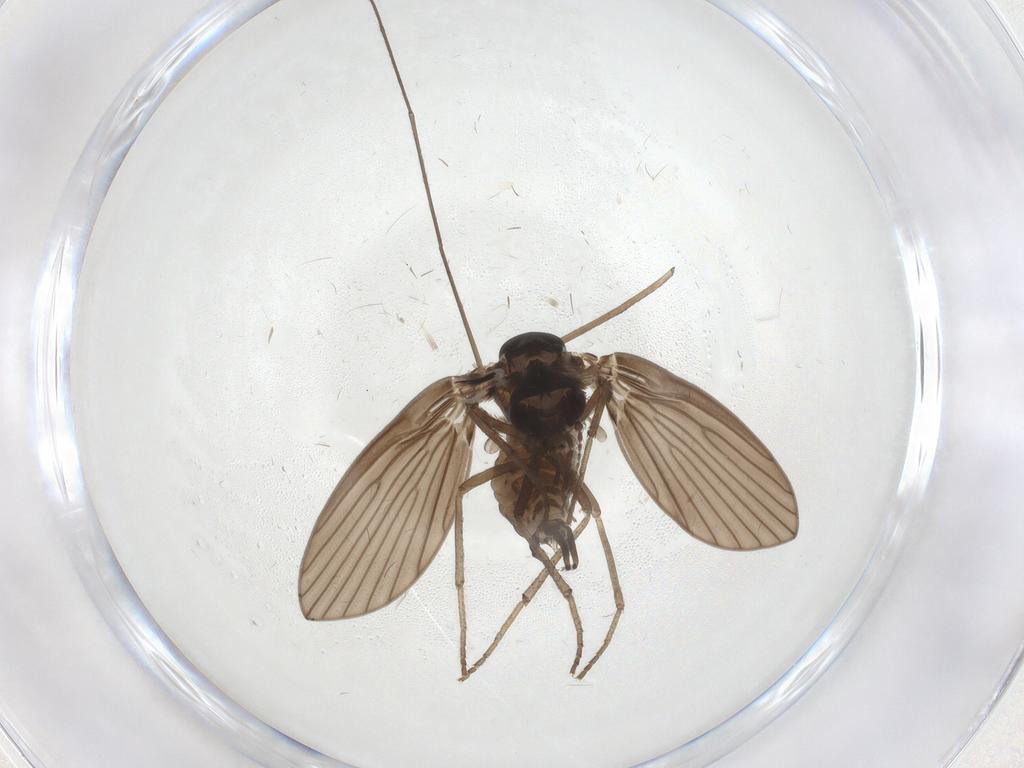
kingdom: Animalia
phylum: Arthropoda
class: Insecta
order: Diptera
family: Psychodidae
